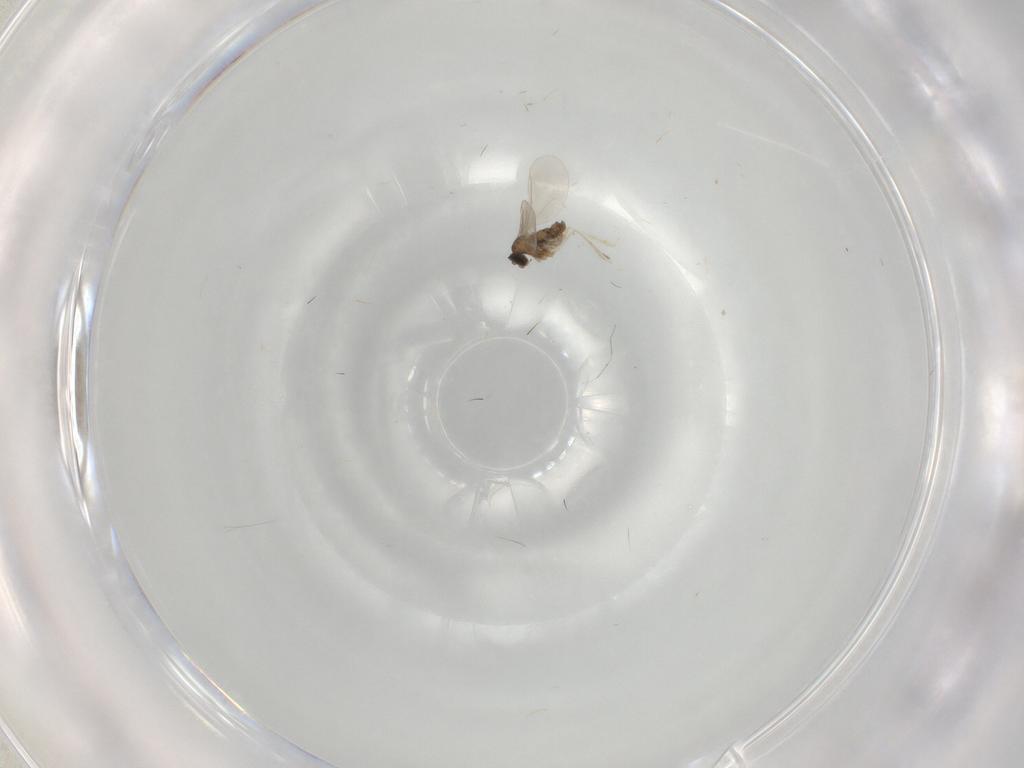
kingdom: Animalia
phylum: Arthropoda
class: Insecta
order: Diptera
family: Cecidomyiidae
